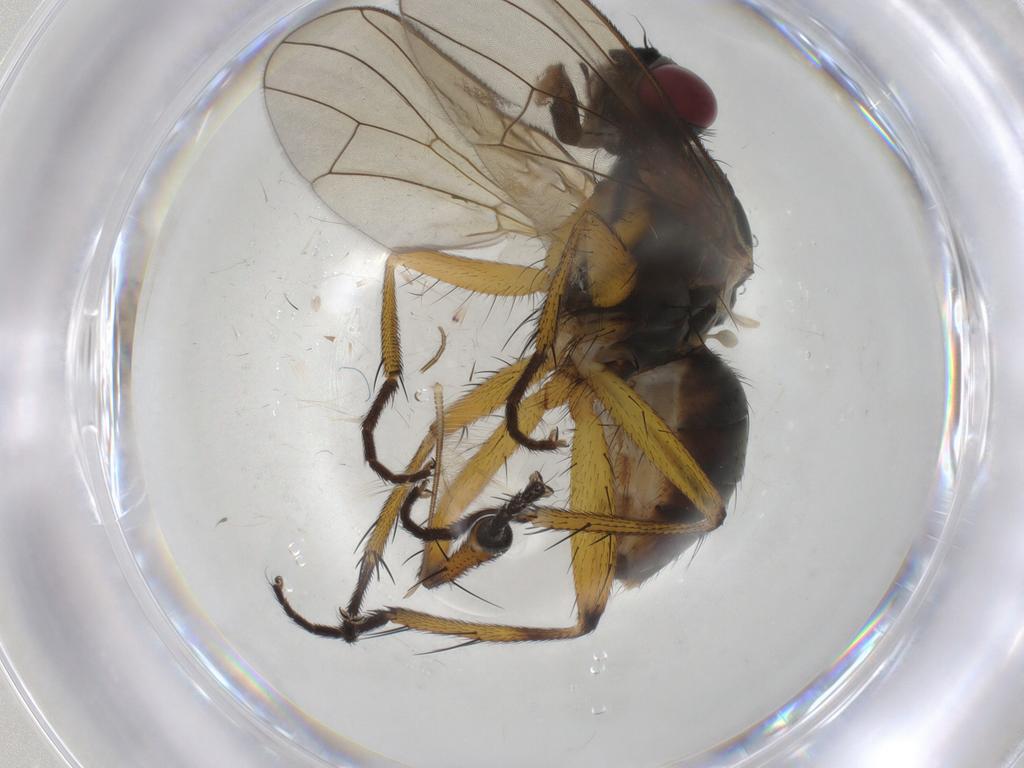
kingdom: Animalia
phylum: Arthropoda
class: Insecta
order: Diptera
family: Muscidae
